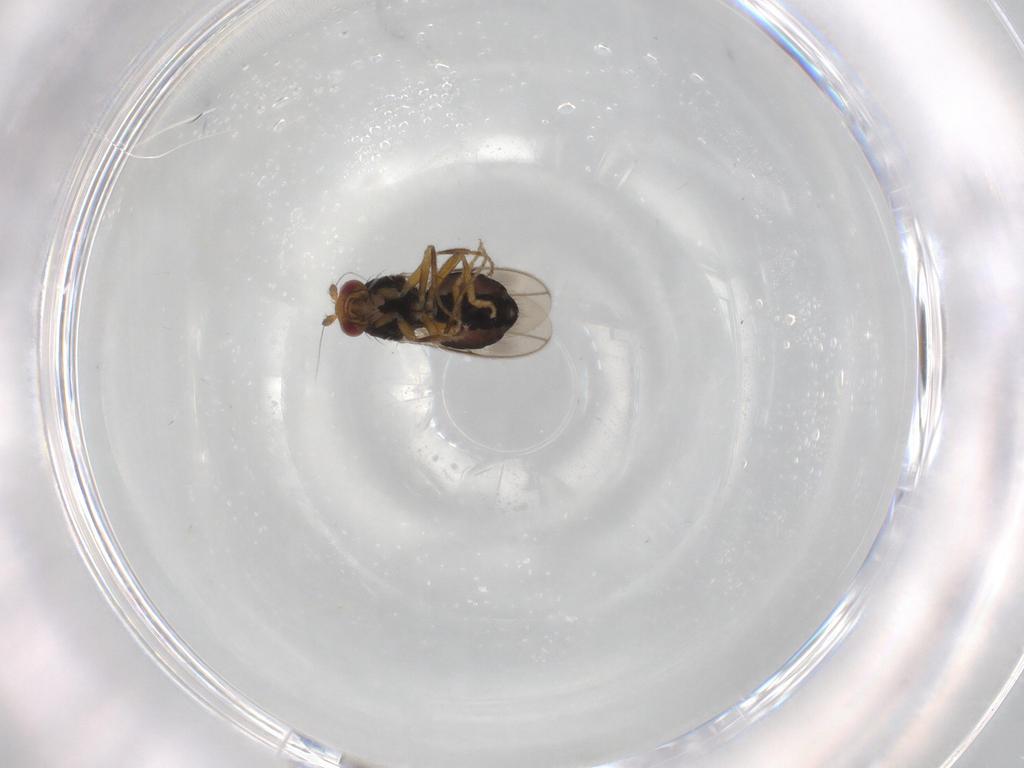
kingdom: Animalia
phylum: Arthropoda
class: Insecta
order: Diptera
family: Sphaeroceridae
